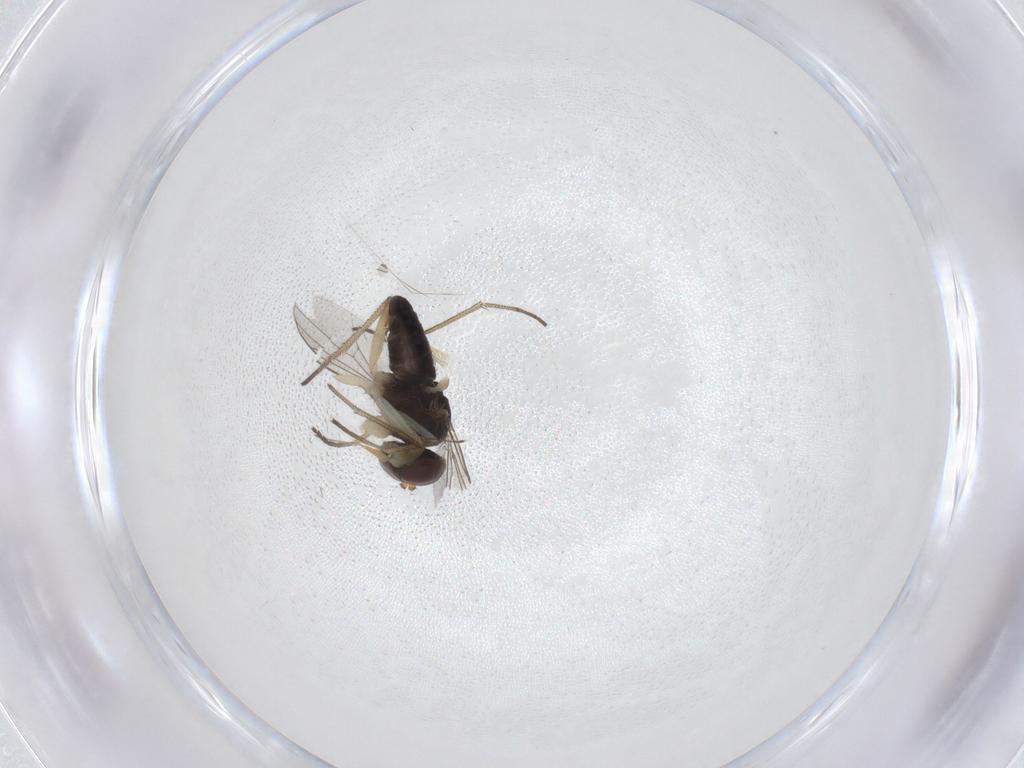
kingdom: Animalia
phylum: Arthropoda
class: Insecta
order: Diptera
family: Dolichopodidae
